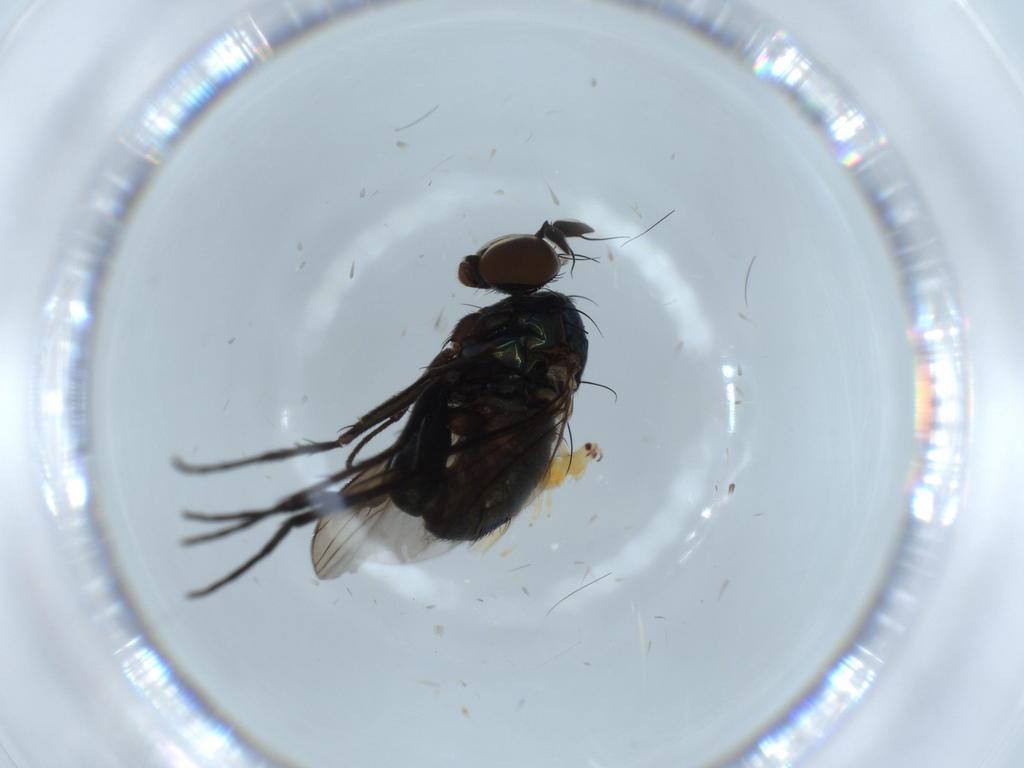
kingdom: Animalia
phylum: Arthropoda
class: Insecta
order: Diptera
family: Dolichopodidae
